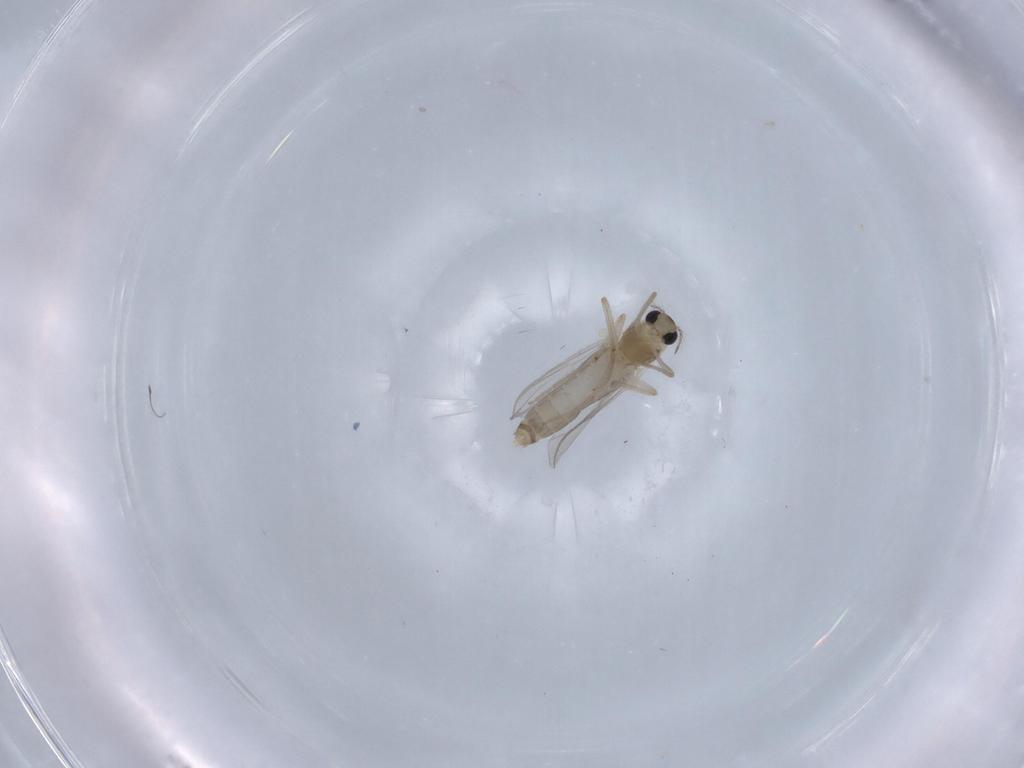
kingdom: Animalia
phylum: Arthropoda
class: Insecta
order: Diptera
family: Chironomidae
